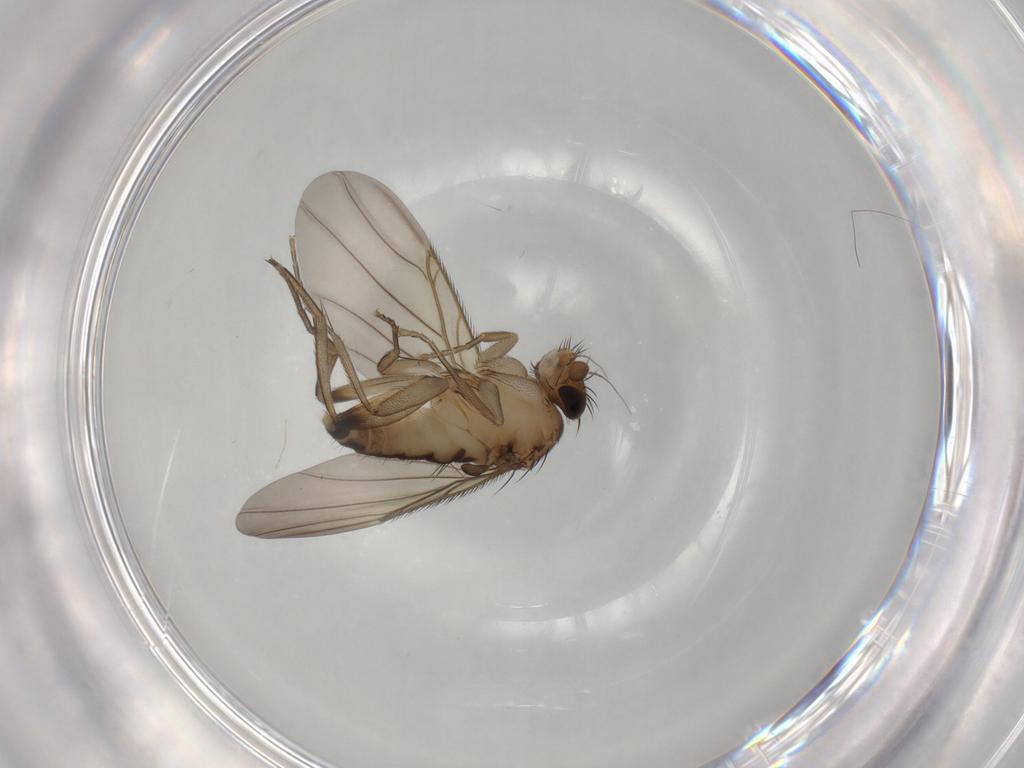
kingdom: Animalia
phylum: Arthropoda
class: Insecta
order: Diptera
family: Phoridae
